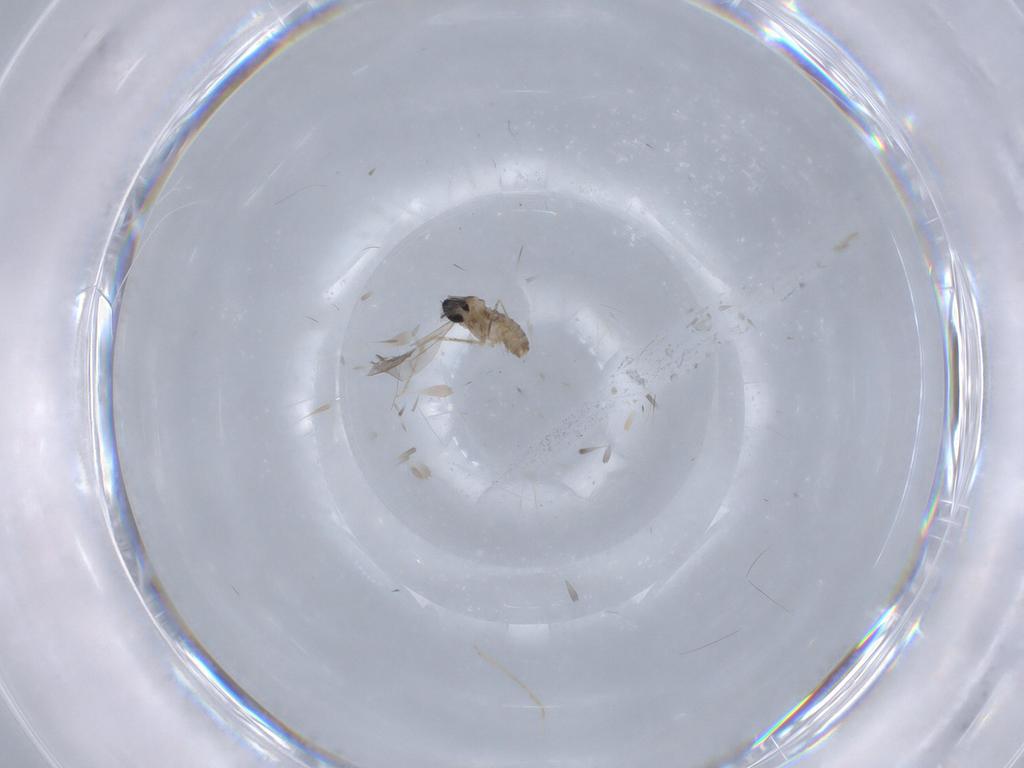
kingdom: Animalia
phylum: Arthropoda
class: Insecta
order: Diptera
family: Cecidomyiidae
